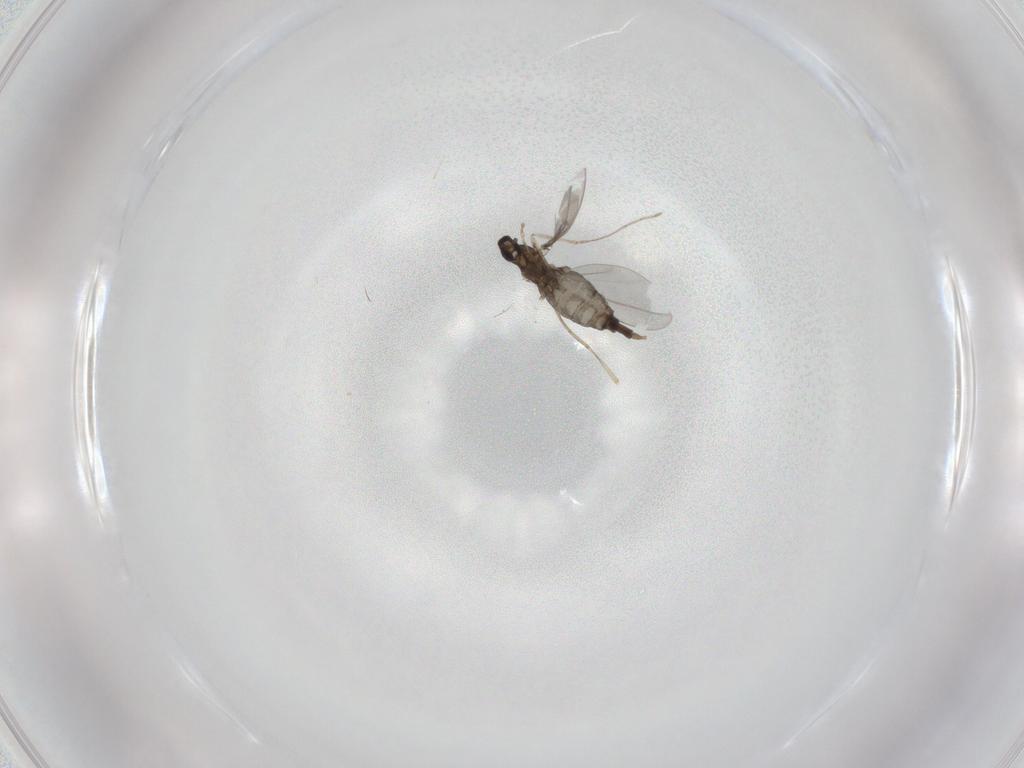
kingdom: Animalia
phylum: Arthropoda
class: Insecta
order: Diptera
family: Cecidomyiidae
